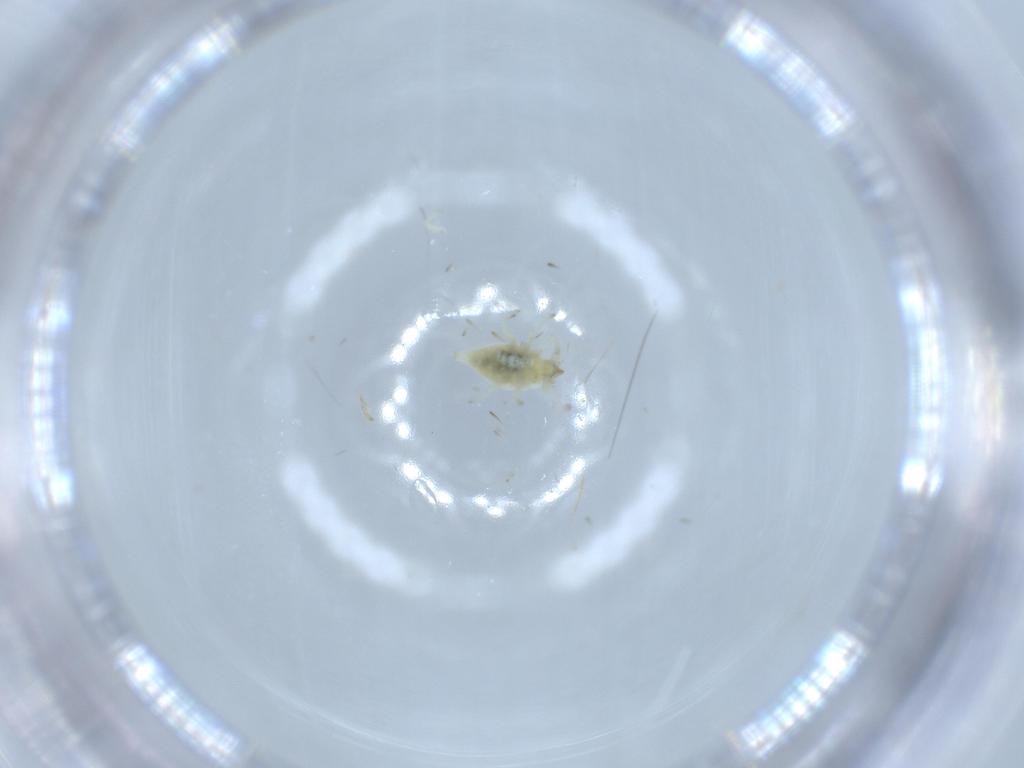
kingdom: Animalia
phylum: Arthropoda
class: Insecta
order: Neuroptera
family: Coniopterygidae
